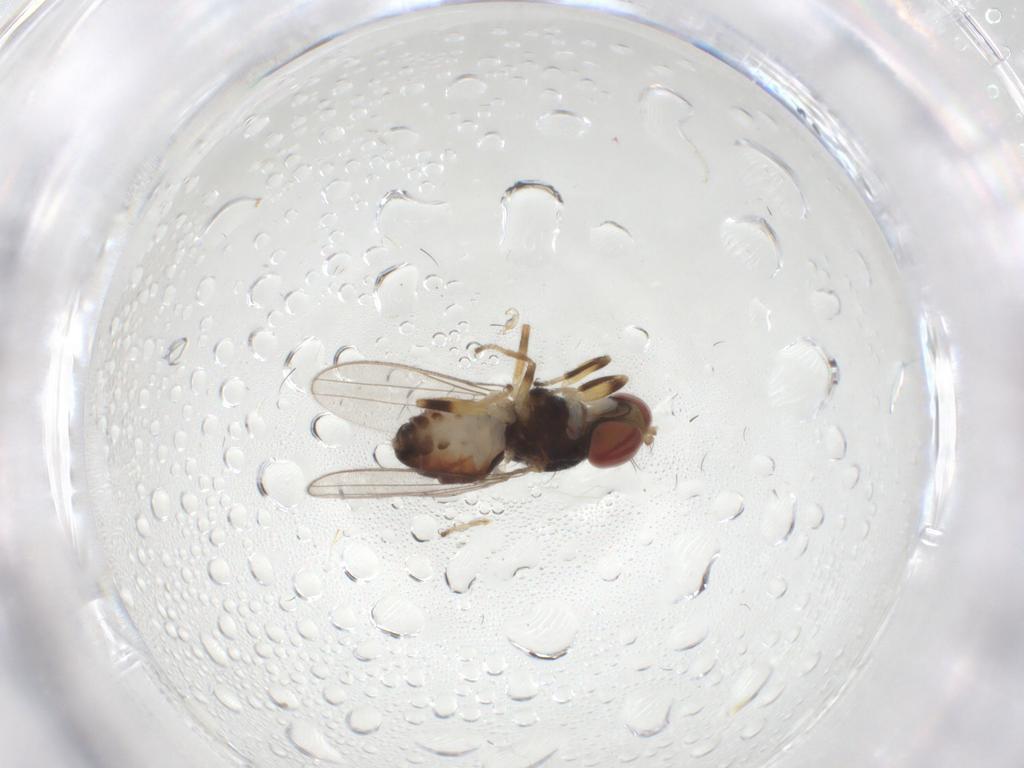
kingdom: Animalia
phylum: Arthropoda
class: Insecta
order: Diptera
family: Aulacigastridae
